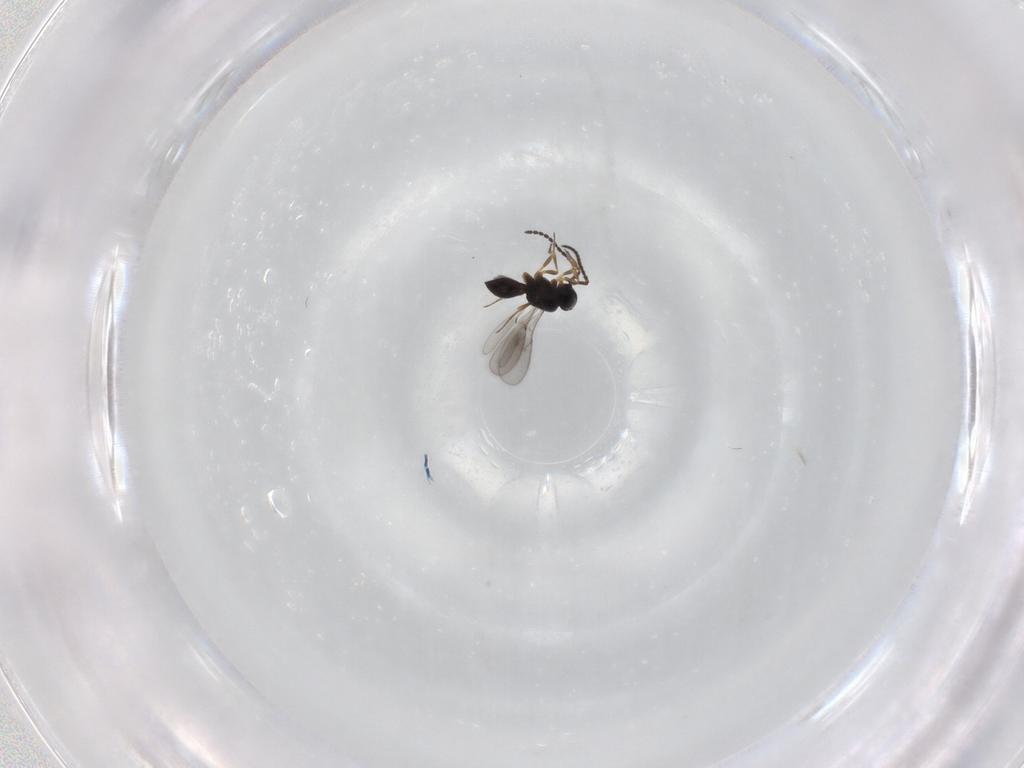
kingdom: Animalia
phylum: Arthropoda
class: Insecta
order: Hymenoptera
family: Scelionidae
